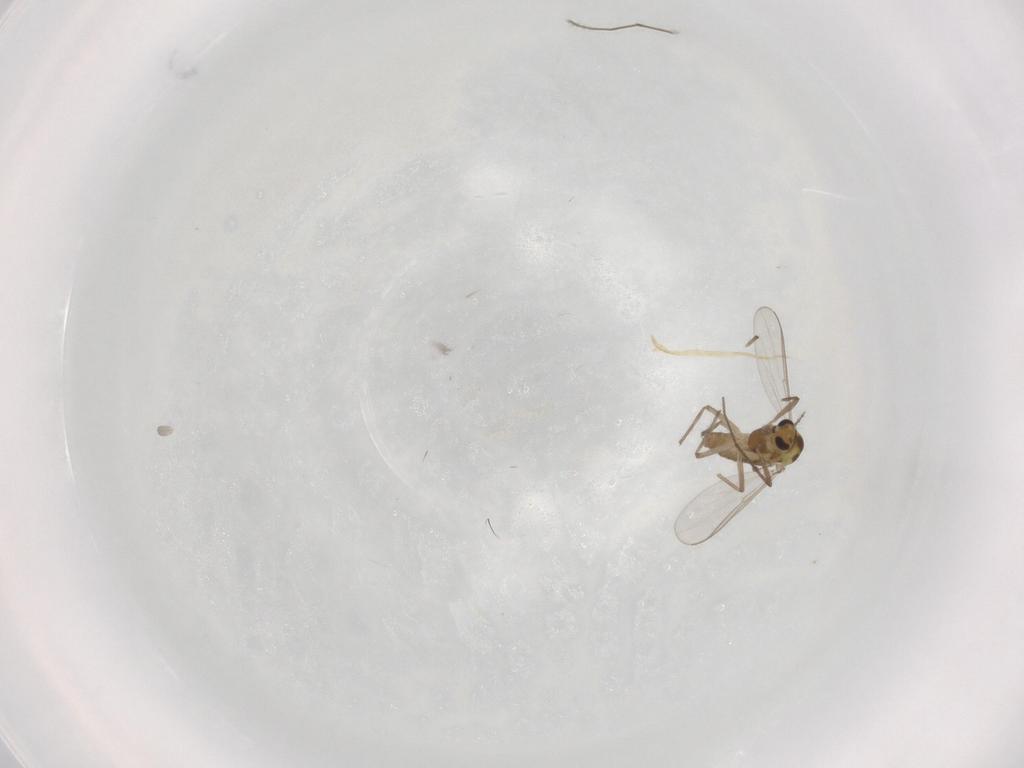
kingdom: Animalia
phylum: Arthropoda
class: Insecta
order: Diptera
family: Chironomidae
